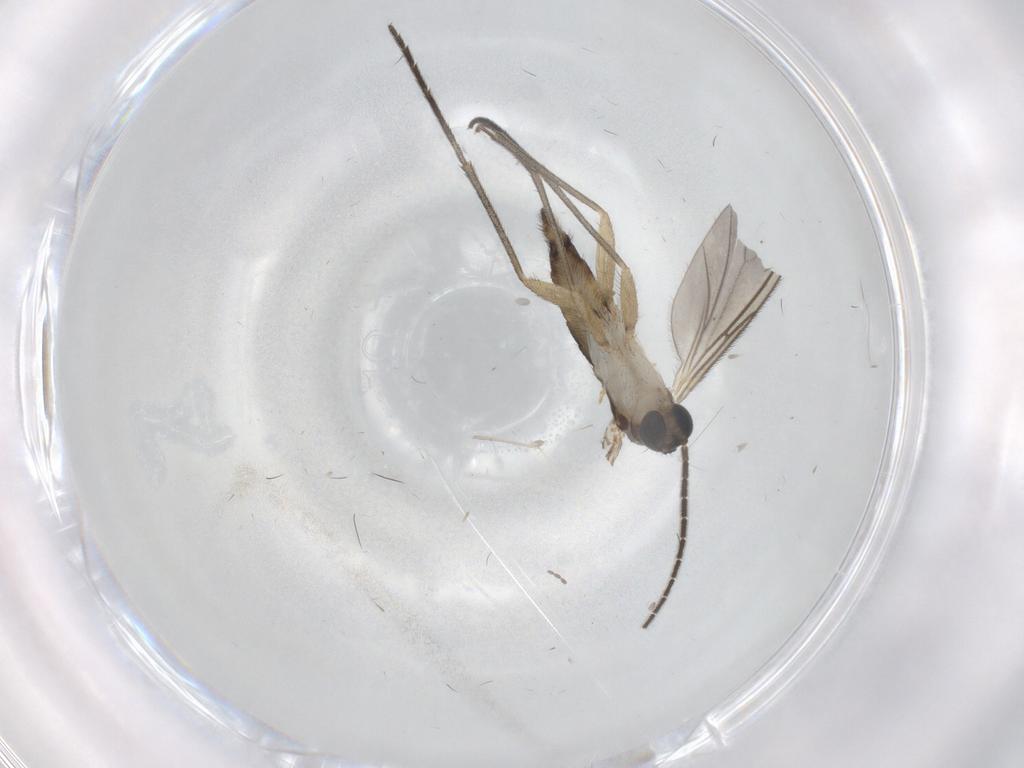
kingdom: Animalia
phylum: Arthropoda
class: Insecta
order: Diptera
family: Sciaridae
